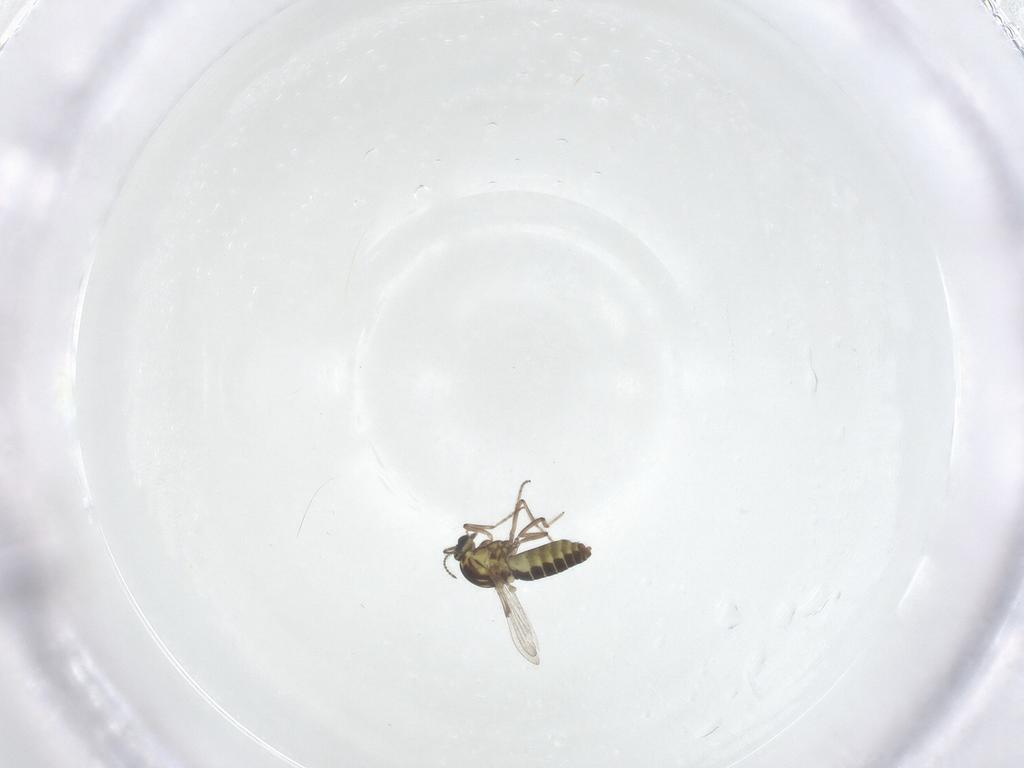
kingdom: Animalia
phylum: Arthropoda
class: Insecta
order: Diptera
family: Ceratopogonidae
